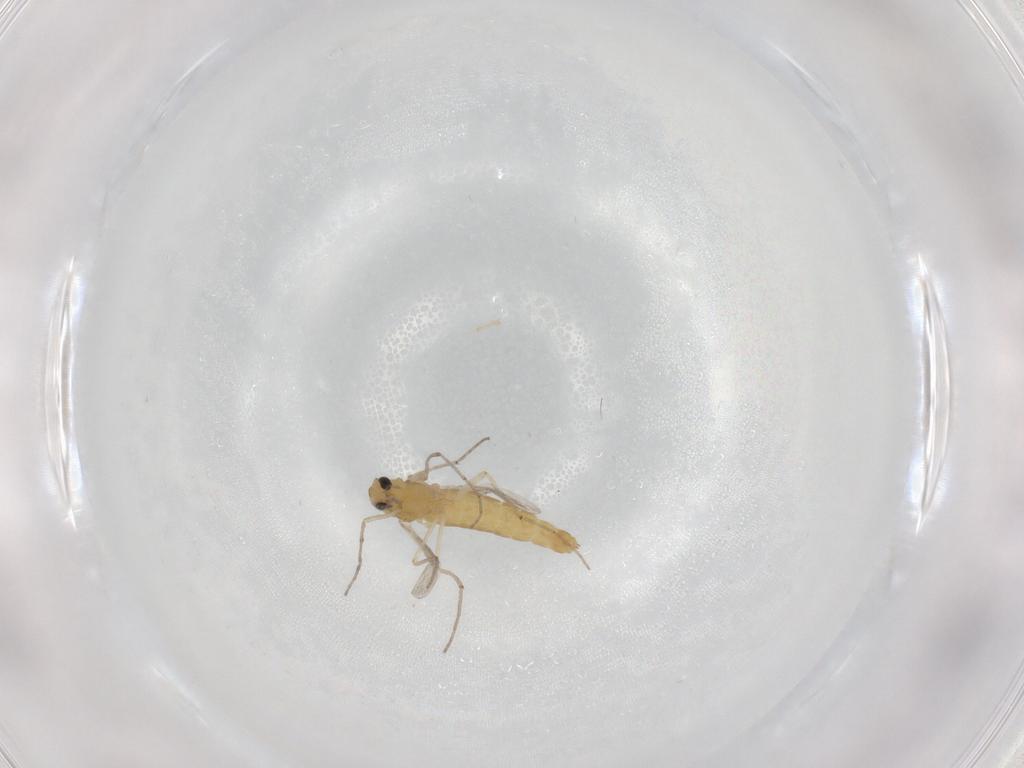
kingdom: Animalia
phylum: Arthropoda
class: Insecta
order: Diptera
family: Chironomidae
